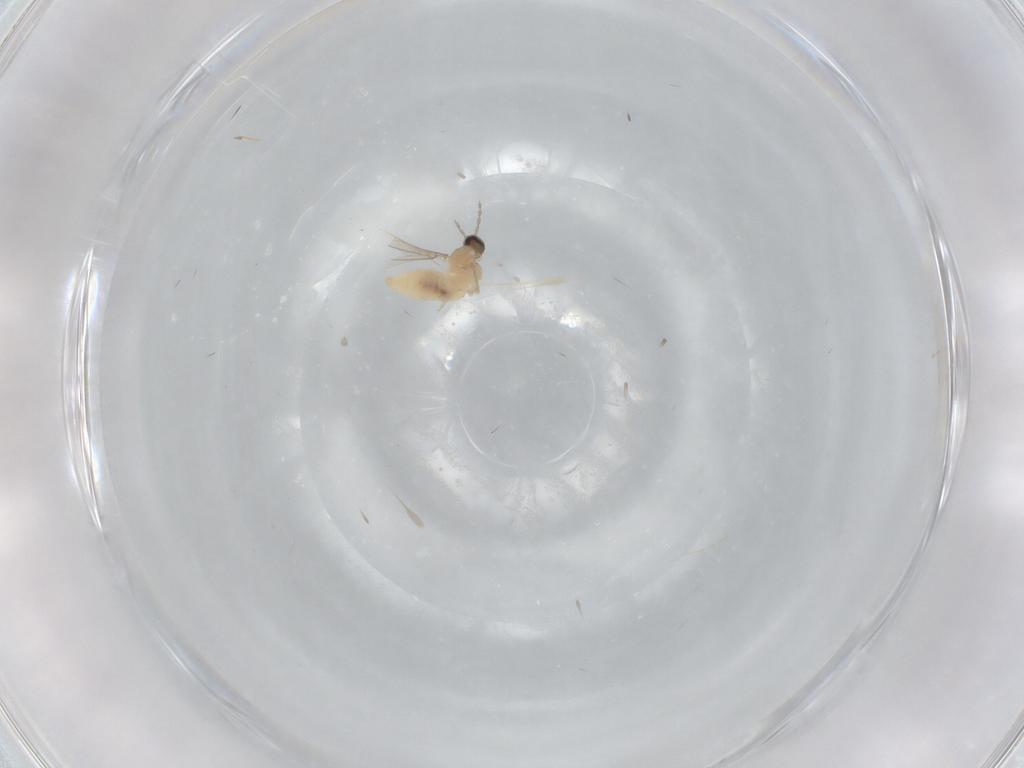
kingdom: Animalia
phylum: Arthropoda
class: Insecta
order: Diptera
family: Cecidomyiidae
